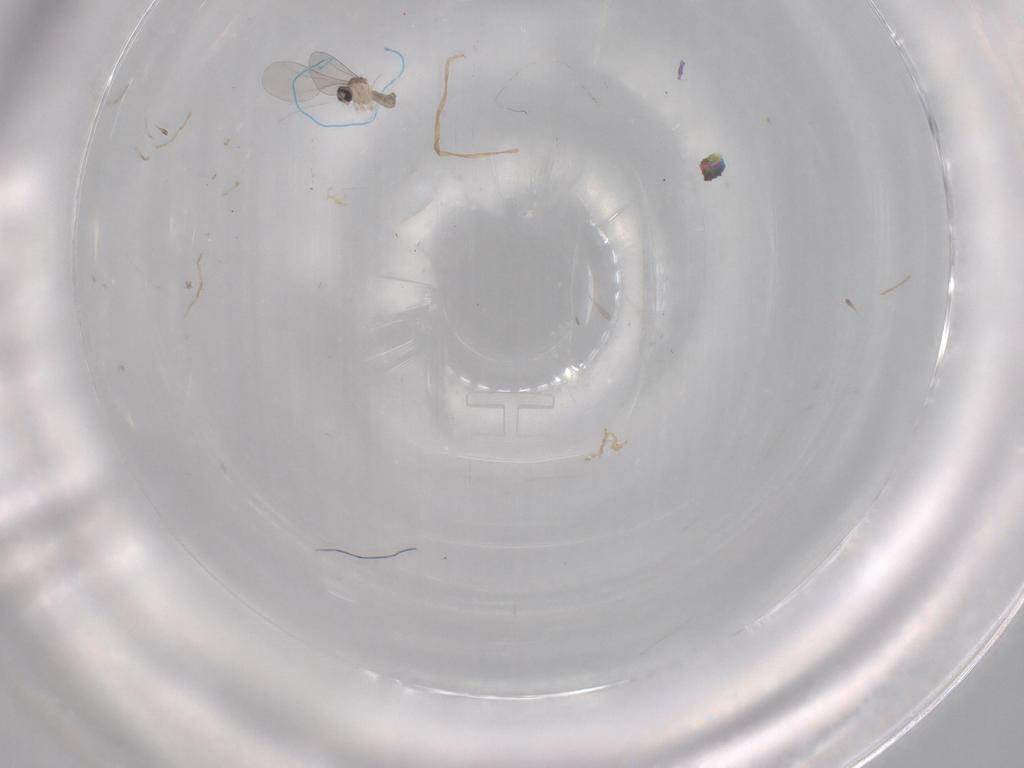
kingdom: Animalia
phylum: Arthropoda
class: Insecta
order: Diptera
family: Cecidomyiidae
